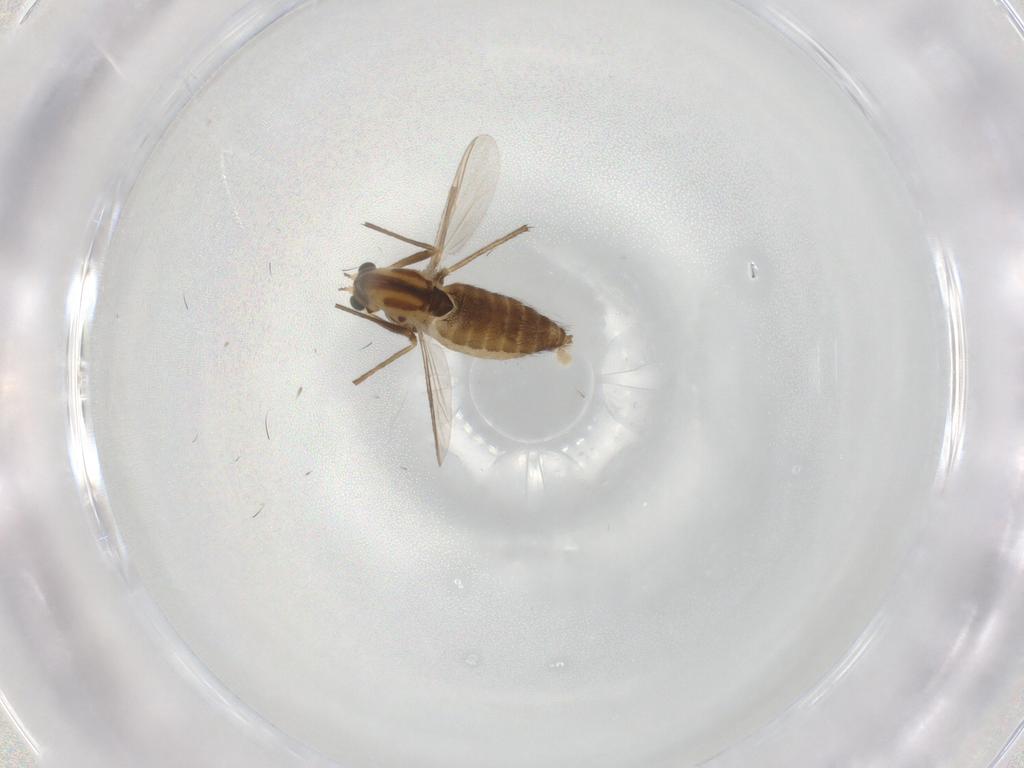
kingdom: Animalia
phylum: Arthropoda
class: Insecta
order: Diptera
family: Chironomidae
